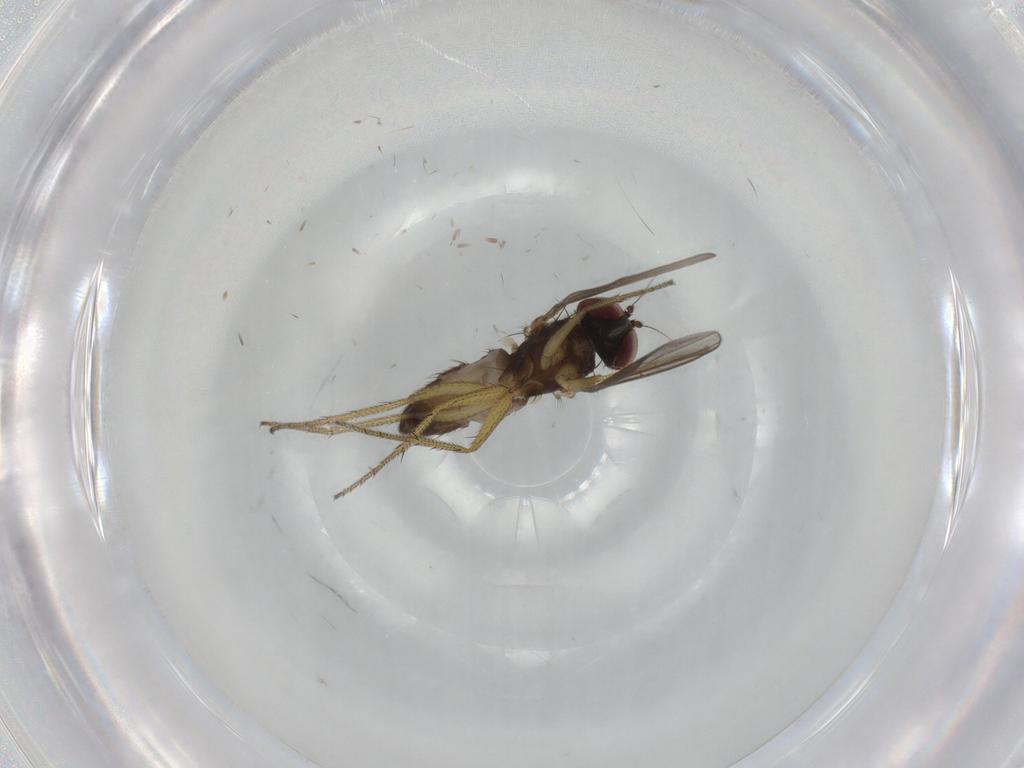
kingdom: Animalia
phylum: Arthropoda
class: Insecta
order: Diptera
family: Dolichopodidae
